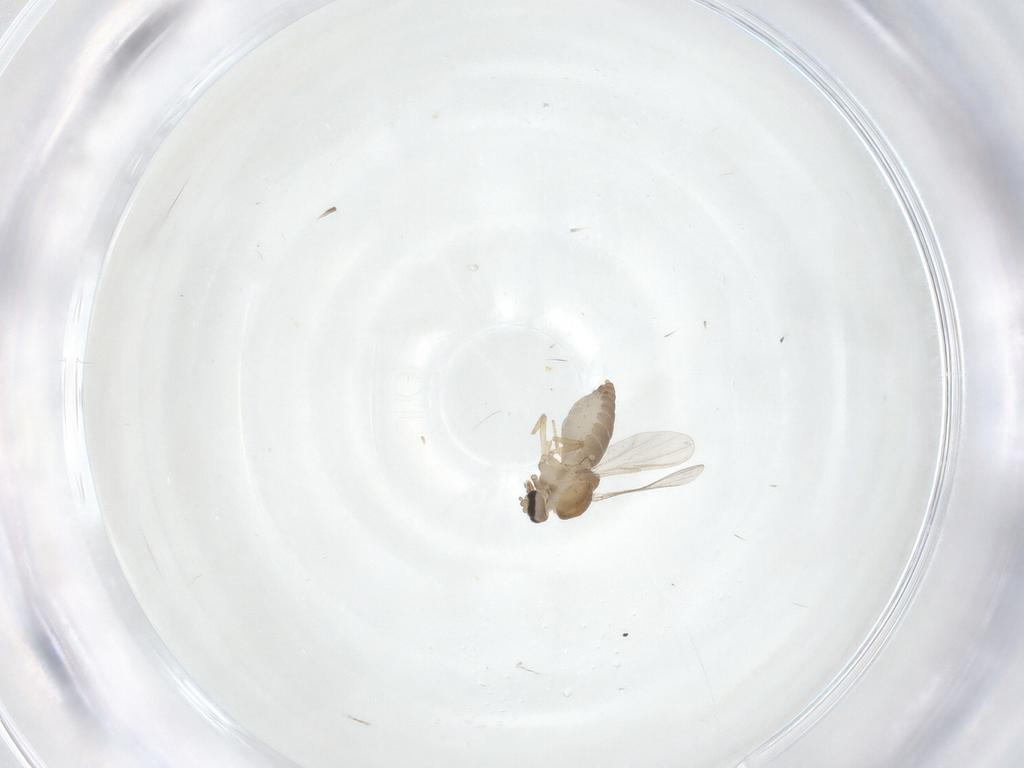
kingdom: Animalia
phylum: Arthropoda
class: Insecta
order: Diptera
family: Ceratopogonidae
